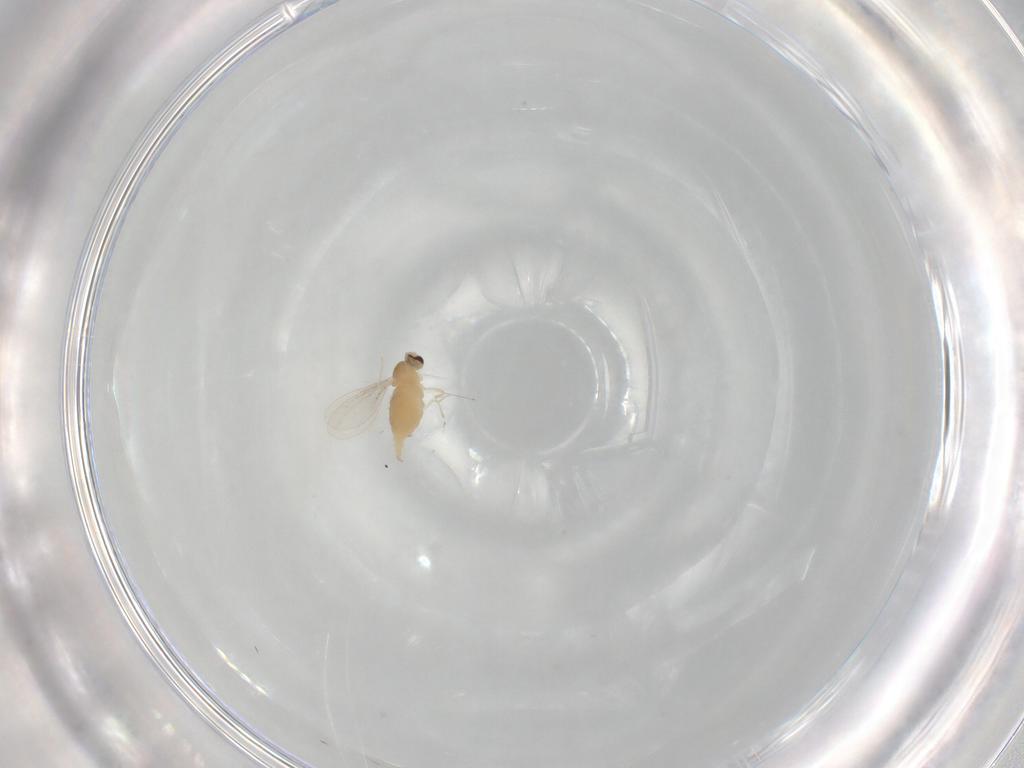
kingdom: Animalia
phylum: Arthropoda
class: Insecta
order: Diptera
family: Cecidomyiidae
